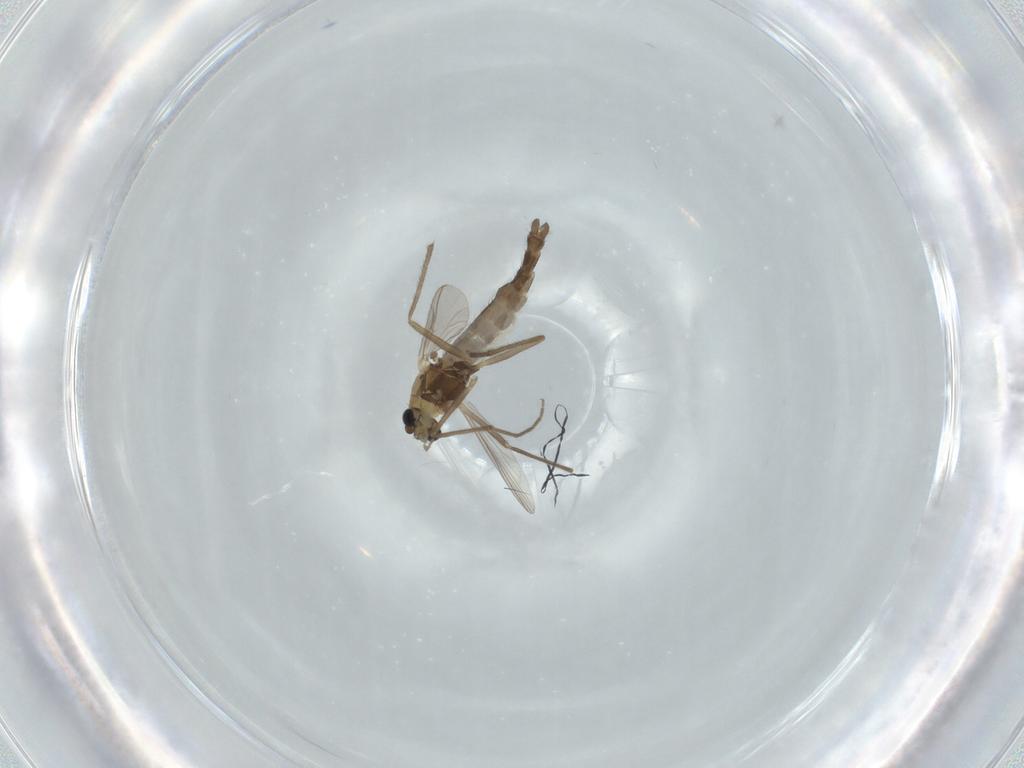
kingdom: Animalia
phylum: Arthropoda
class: Insecta
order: Diptera
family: Chironomidae
